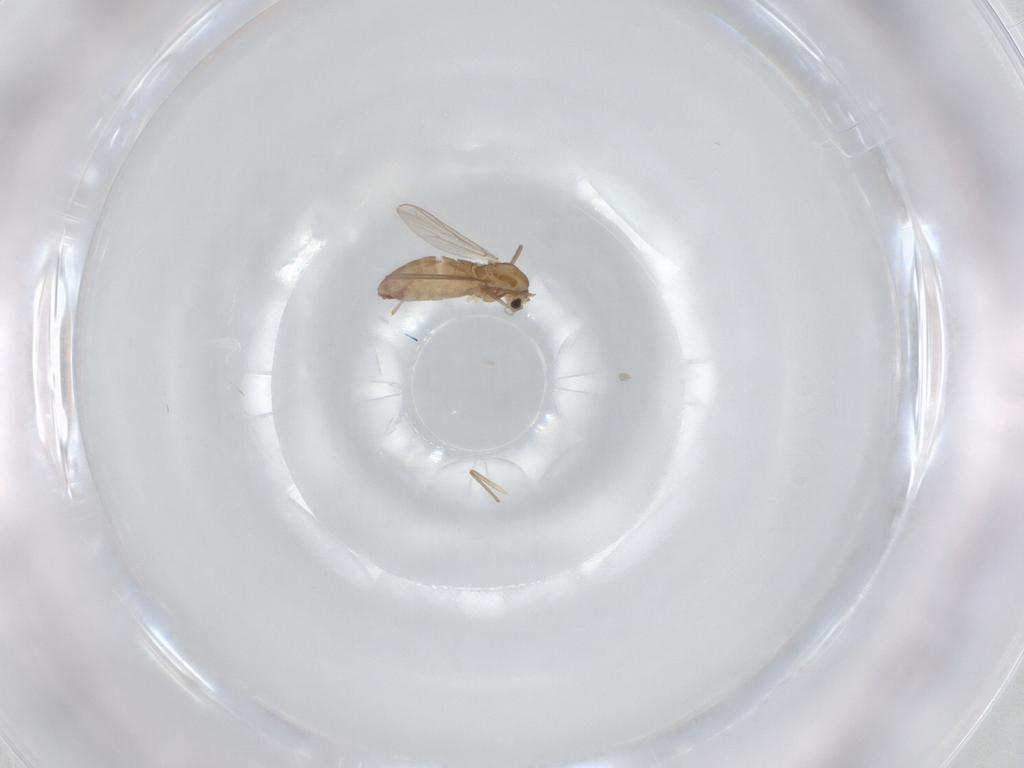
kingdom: Animalia
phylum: Arthropoda
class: Insecta
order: Diptera
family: Chironomidae
